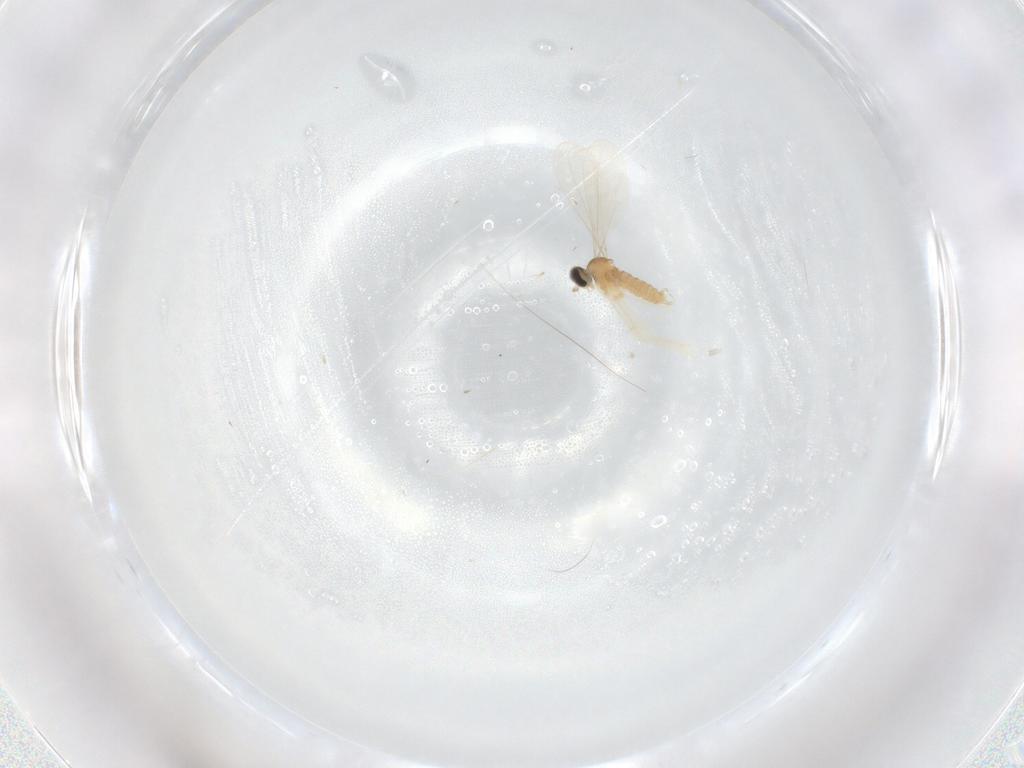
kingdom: Animalia
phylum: Arthropoda
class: Insecta
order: Diptera
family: Cecidomyiidae
